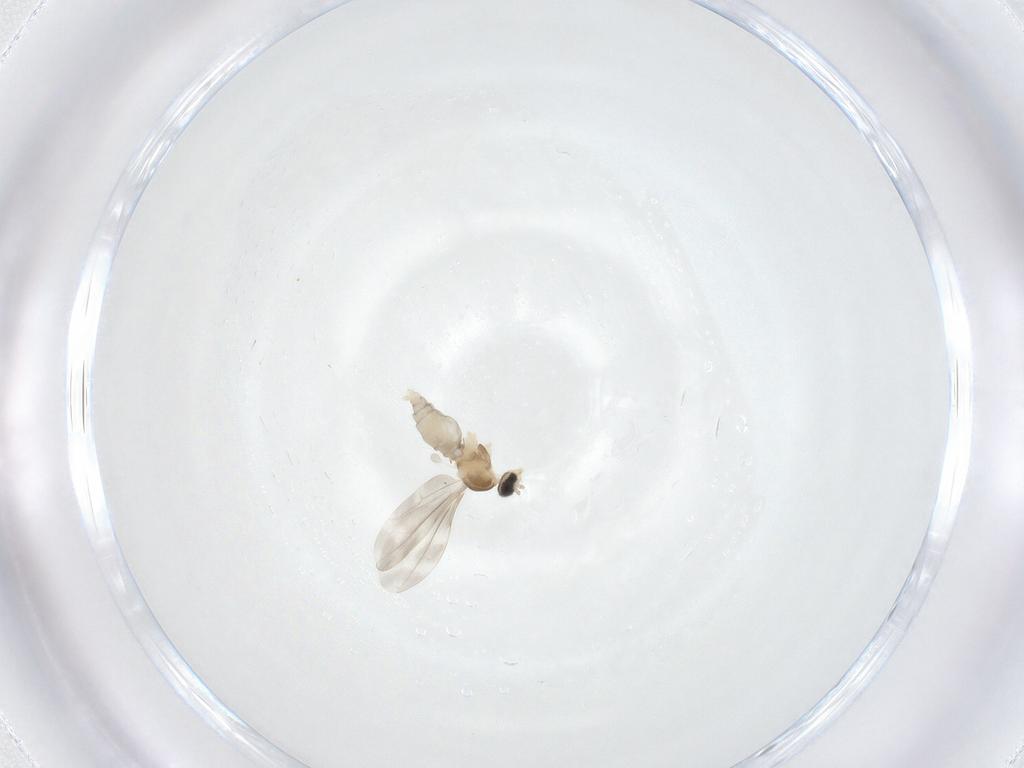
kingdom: Animalia
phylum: Arthropoda
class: Insecta
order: Diptera
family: Cecidomyiidae
